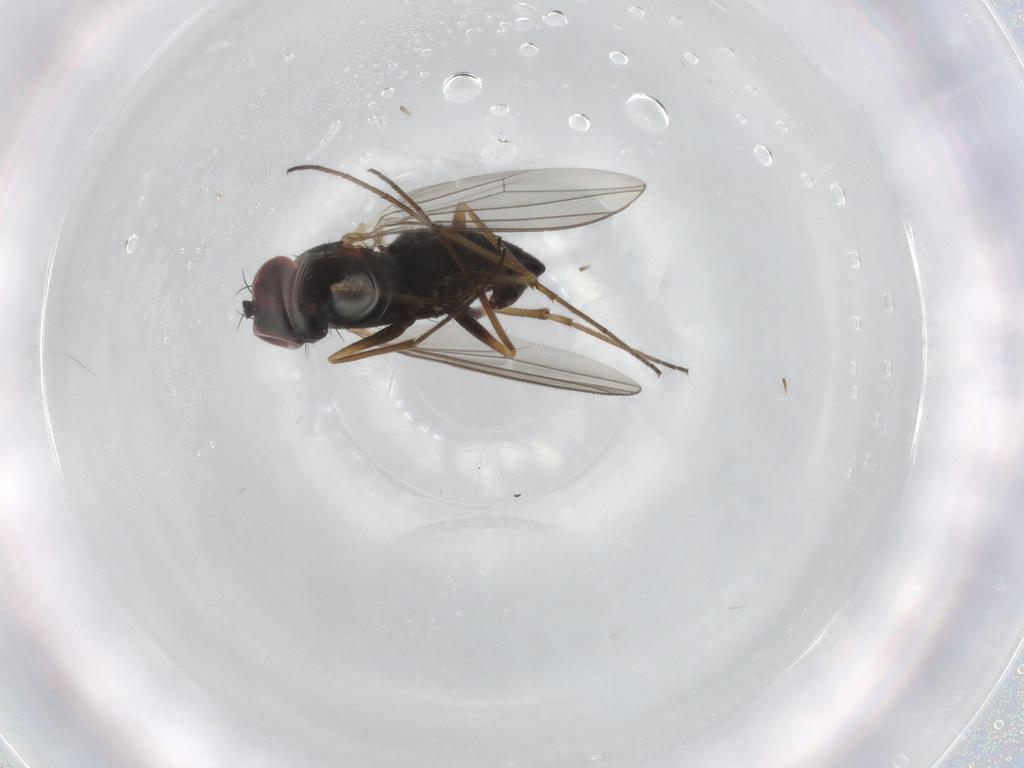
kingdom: Animalia
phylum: Arthropoda
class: Insecta
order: Diptera
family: Dolichopodidae
